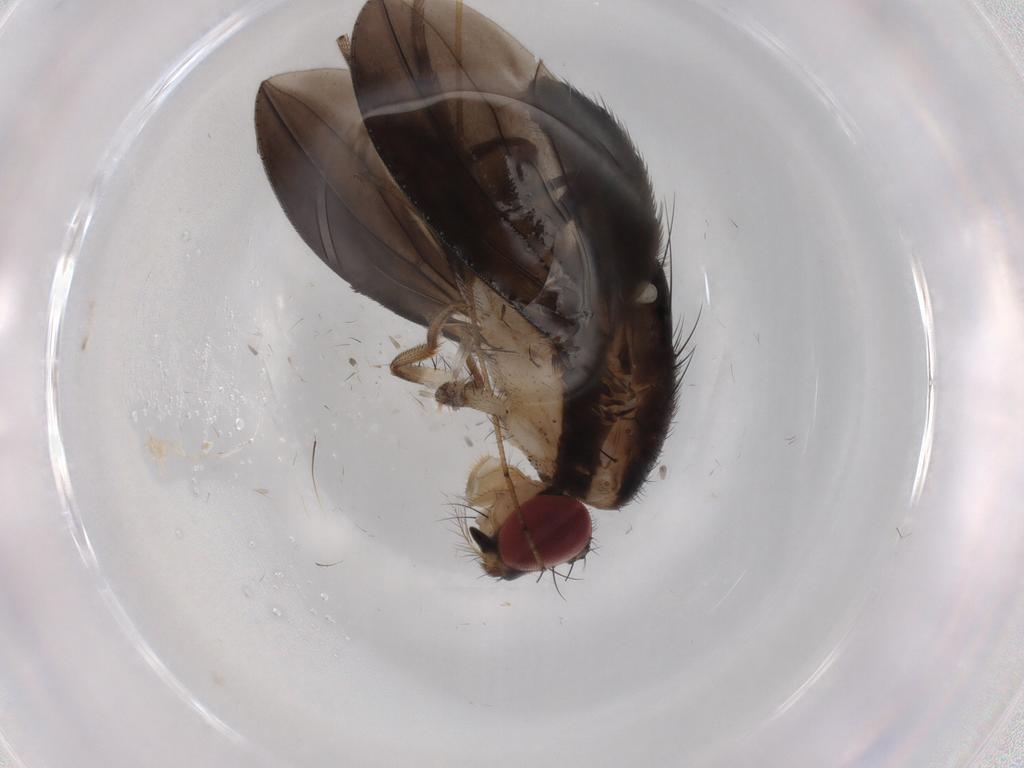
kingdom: Animalia
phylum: Arthropoda
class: Insecta
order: Diptera
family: Drosophilidae
